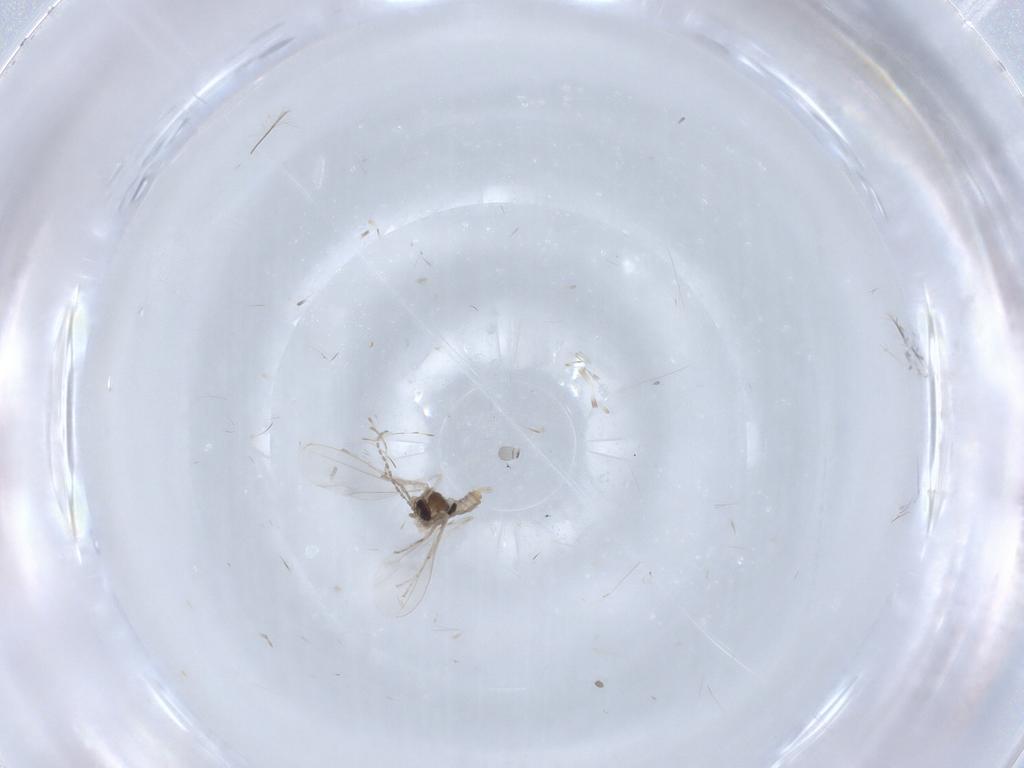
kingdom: Animalia
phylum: Arthropoda
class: Insecta
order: Diptera
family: Cecidomyiidae
